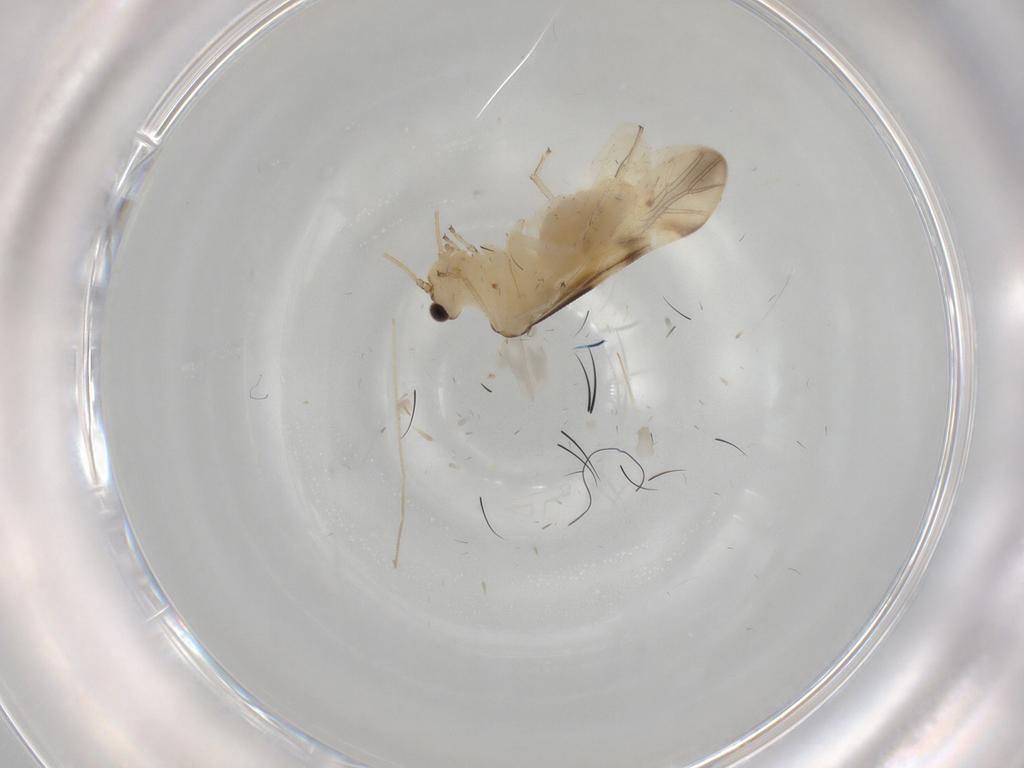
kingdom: Animalia
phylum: Arthropoda
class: Insecta
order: Psocodea
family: Caeciliusidae
